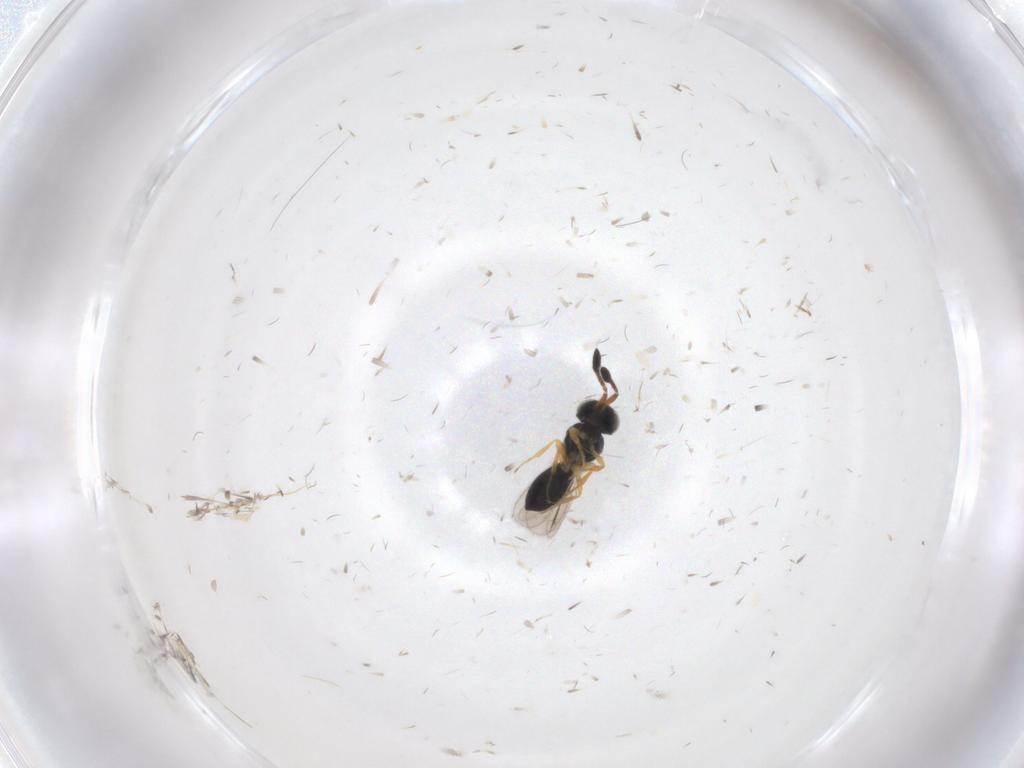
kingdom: Animalia
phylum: Arthropoda
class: Insecta
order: Hymenoptera
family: Scelionidae
